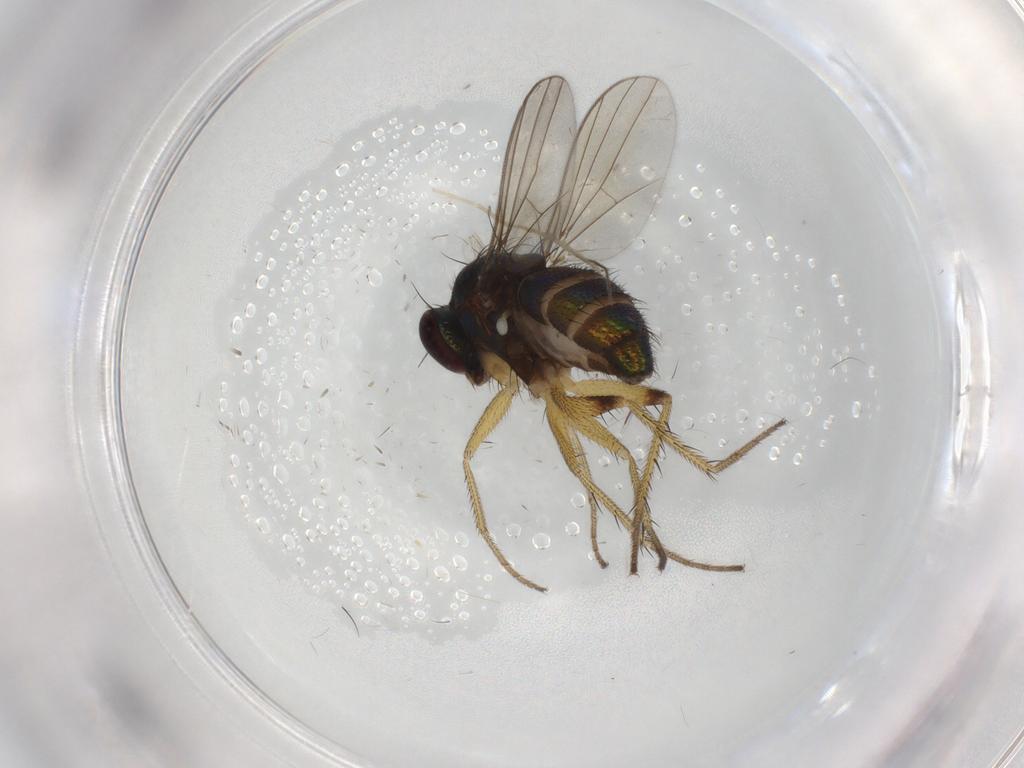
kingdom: Animalia
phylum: Arthropoda
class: Insecta
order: Diptera
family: Dolichopodidae
